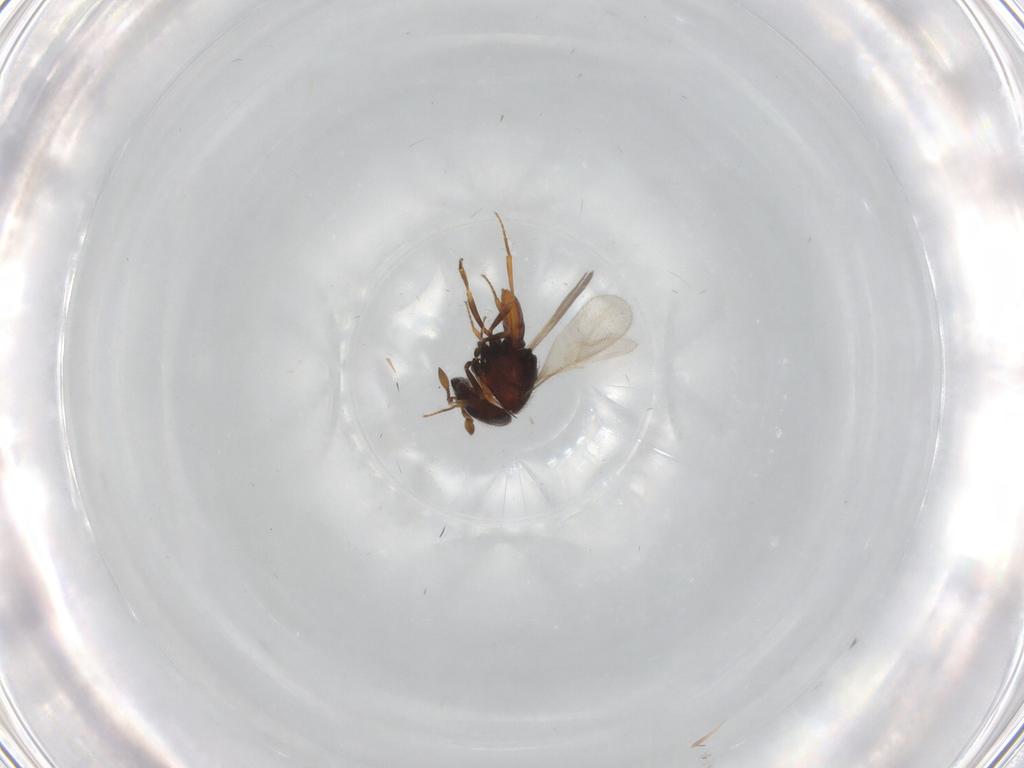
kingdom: Animalia
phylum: Arthropoda
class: Insecta
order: Hymenoptera
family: Scelionidae
